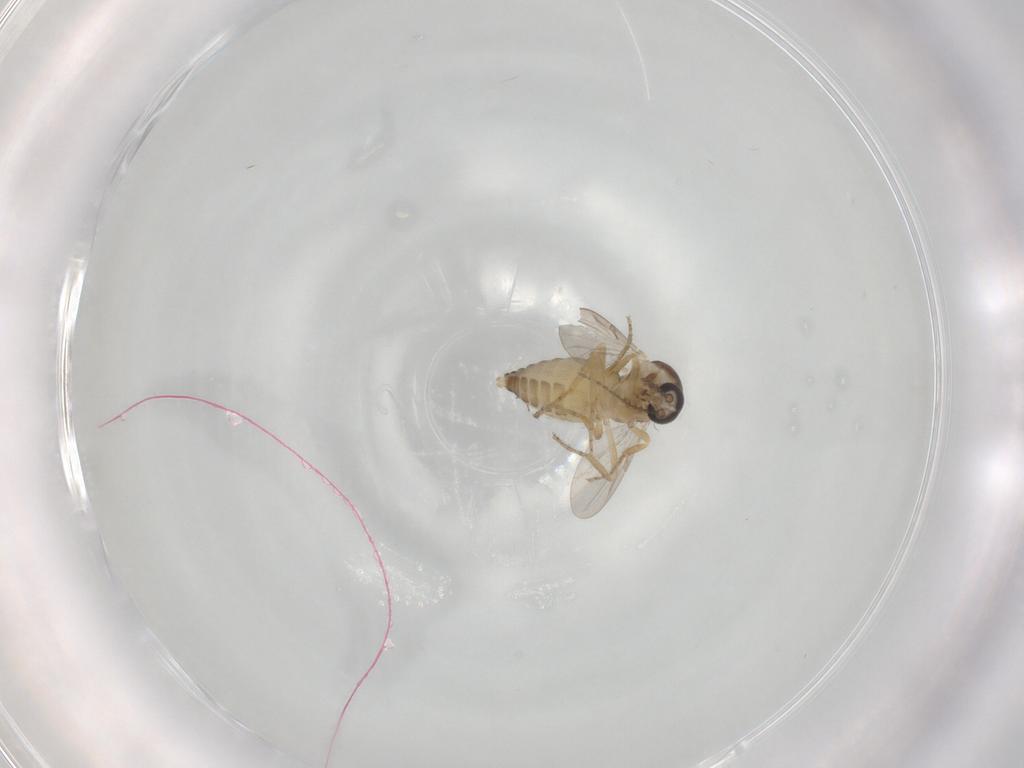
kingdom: Animalia
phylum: Arthropoda
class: Insecta
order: Diptera
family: Ceratopogonidae
